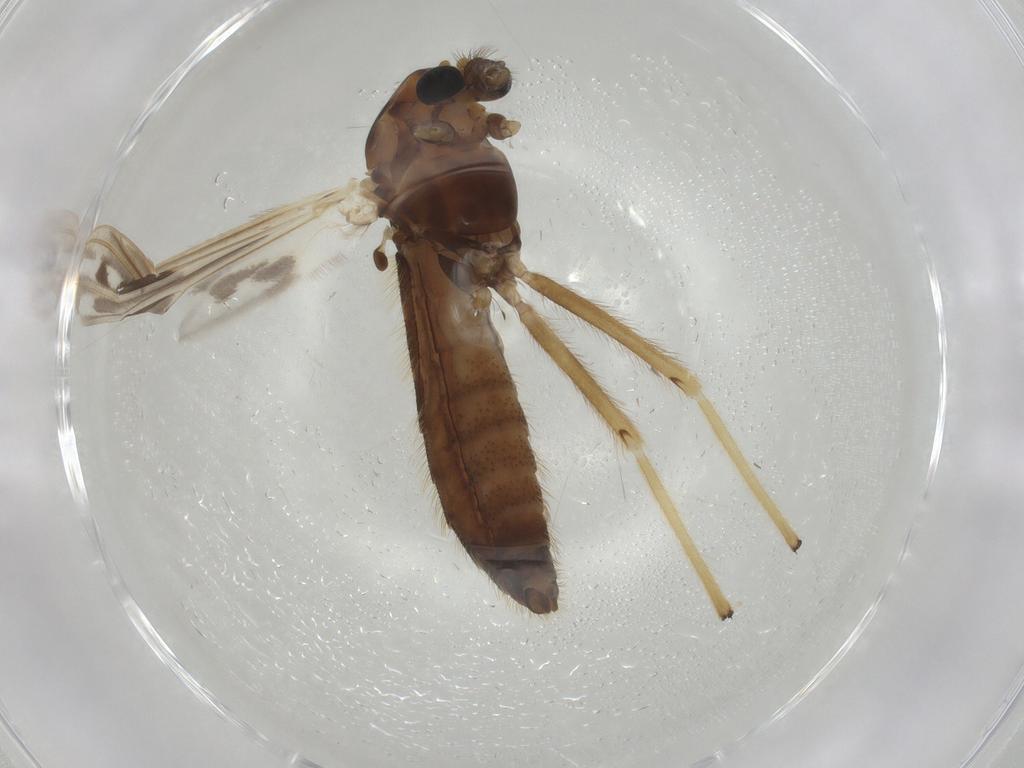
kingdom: Animalia
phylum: Arthropoda
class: Insecta
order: Diptera
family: Chironomidae
